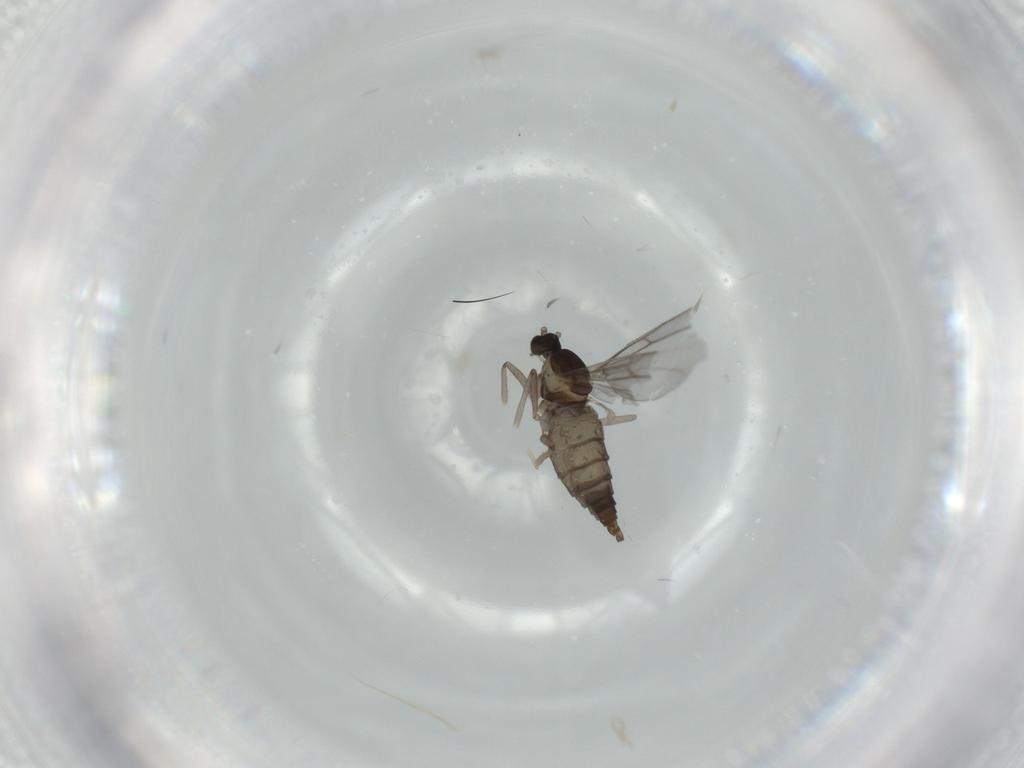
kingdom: Animalia
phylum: Arthropoda
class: Insecta
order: Diptera
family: Cecidomyiidae
